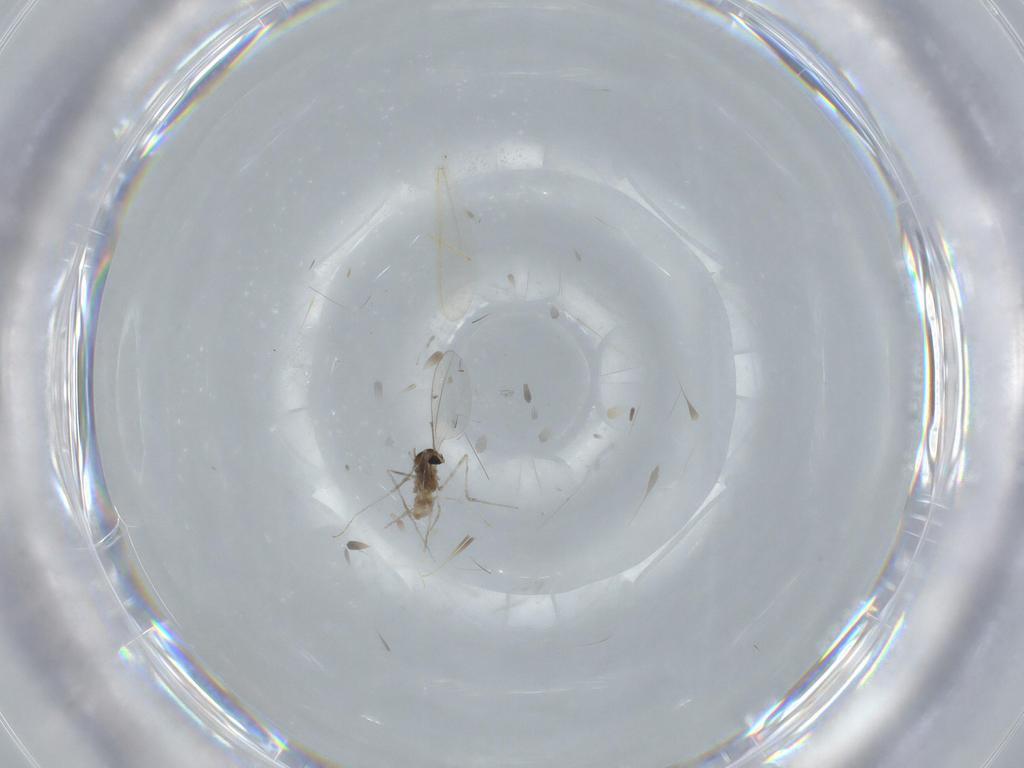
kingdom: Animalia
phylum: Arthropoda
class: Insecta
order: Diptera
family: Cecidomyiidae
